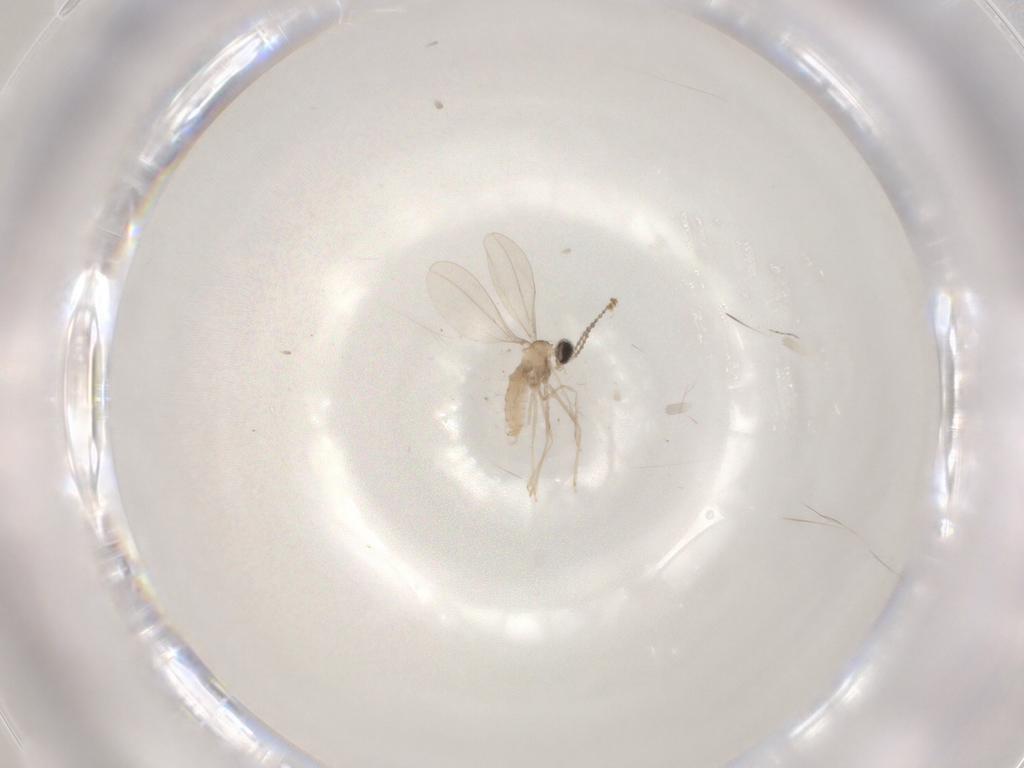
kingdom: Animalia
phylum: Arthropoda
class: Insecta
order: Diptera
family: Cecidomyiidae
